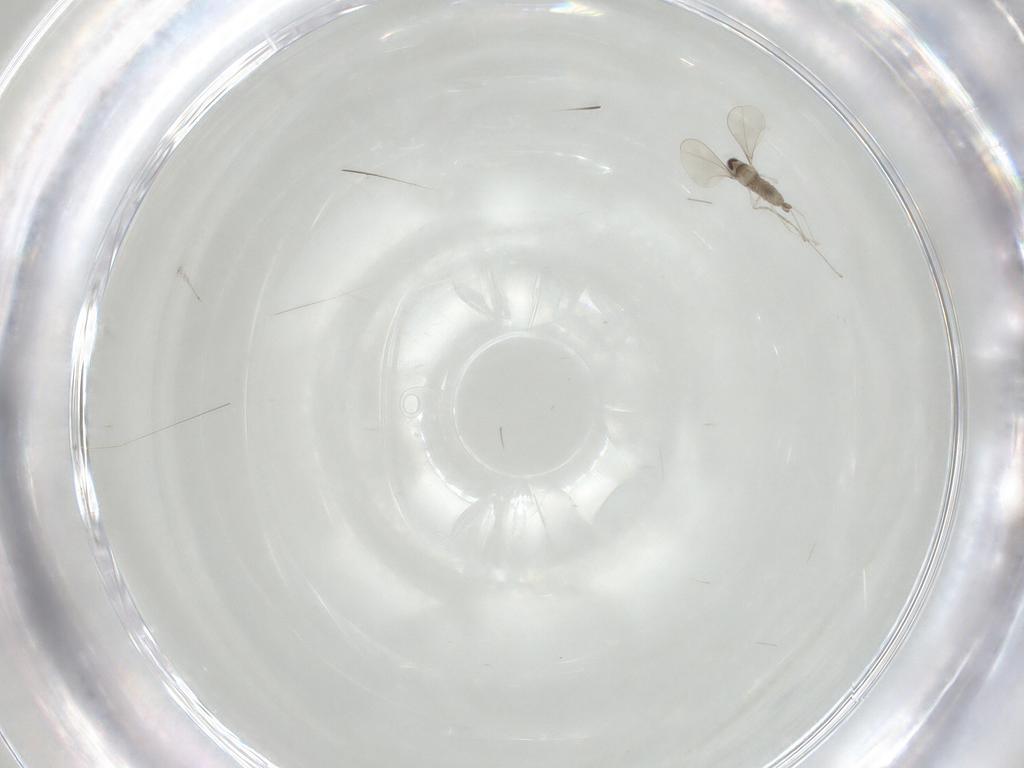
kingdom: Animalia
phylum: Arthropoda
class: Insecta
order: Diptera
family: Cecidomyiidae
